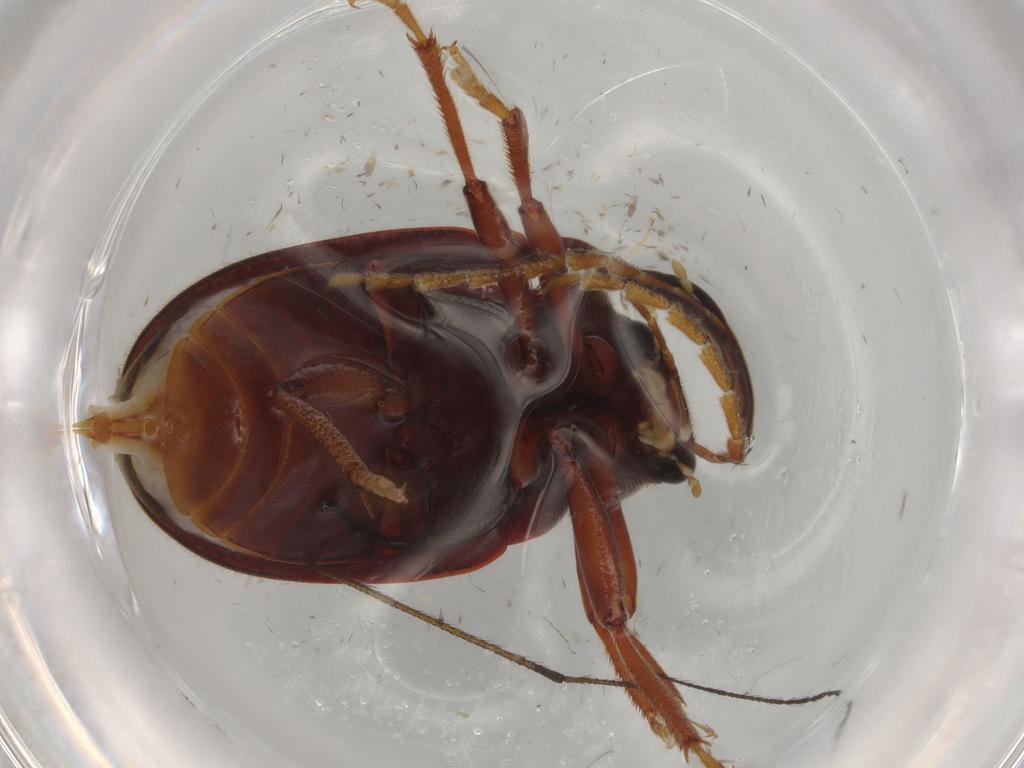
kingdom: Animalia
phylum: Arthropoda
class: Insecta
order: Coleoptera
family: Ptilodactylidae
